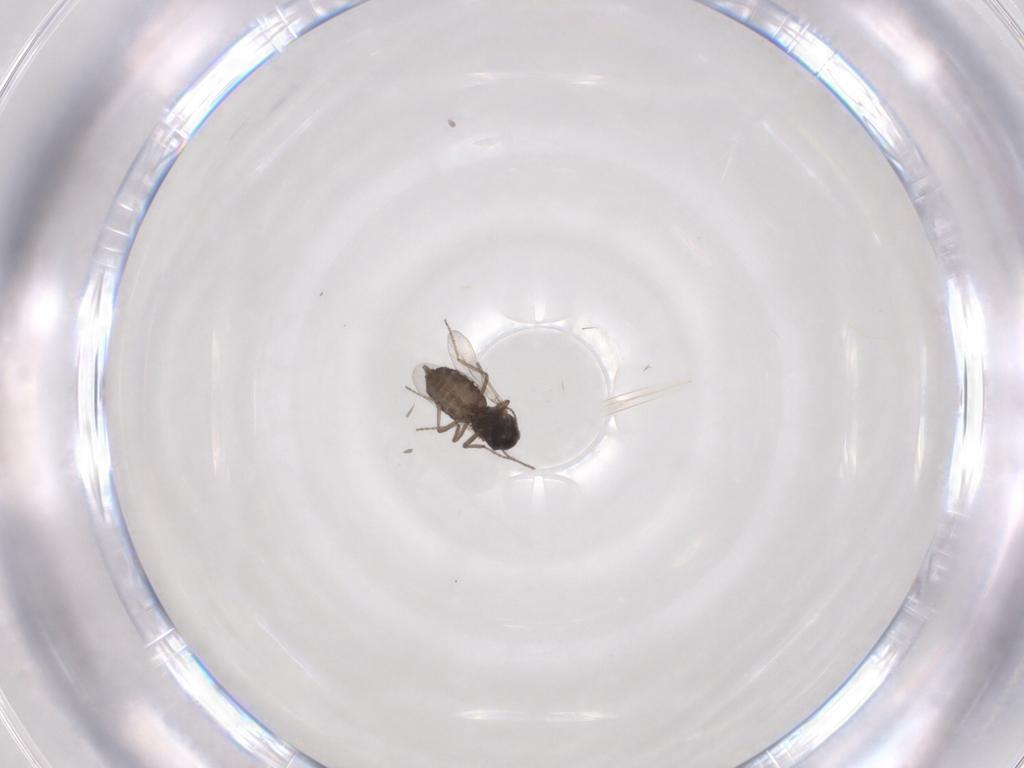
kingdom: Animalia
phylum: Arthropoda
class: Insecta
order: Diptera
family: Ceratopogonidae
